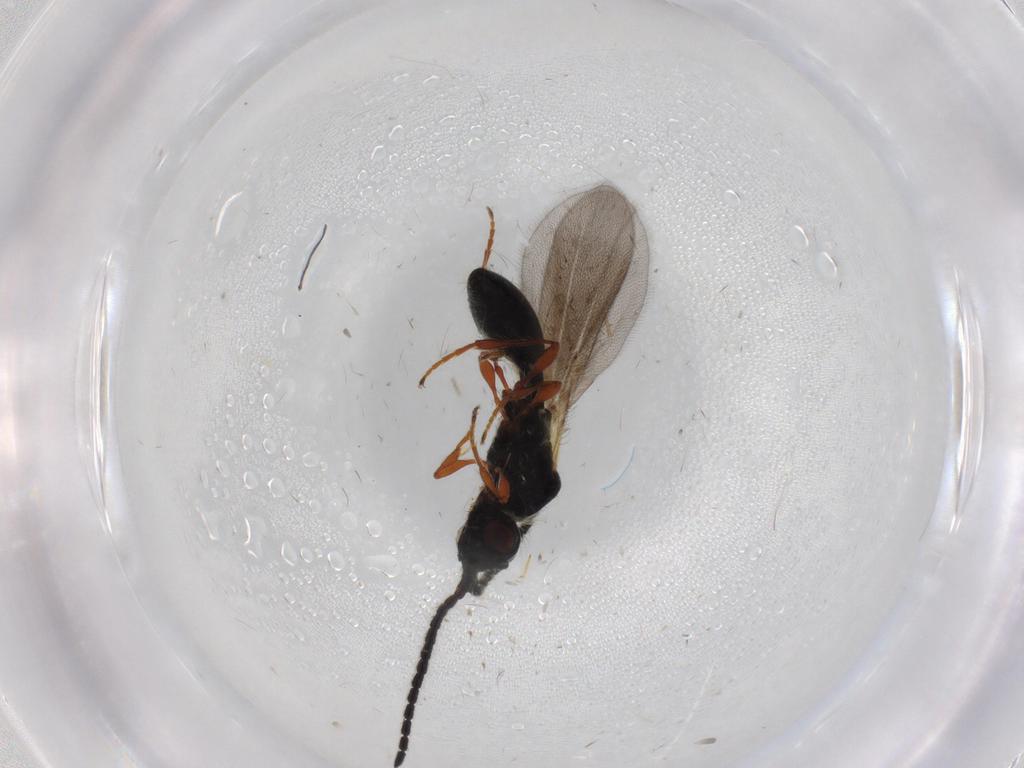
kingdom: Animalia
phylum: Arthropoda
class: Insecta
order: Hymenoptera
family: Diapriidae
